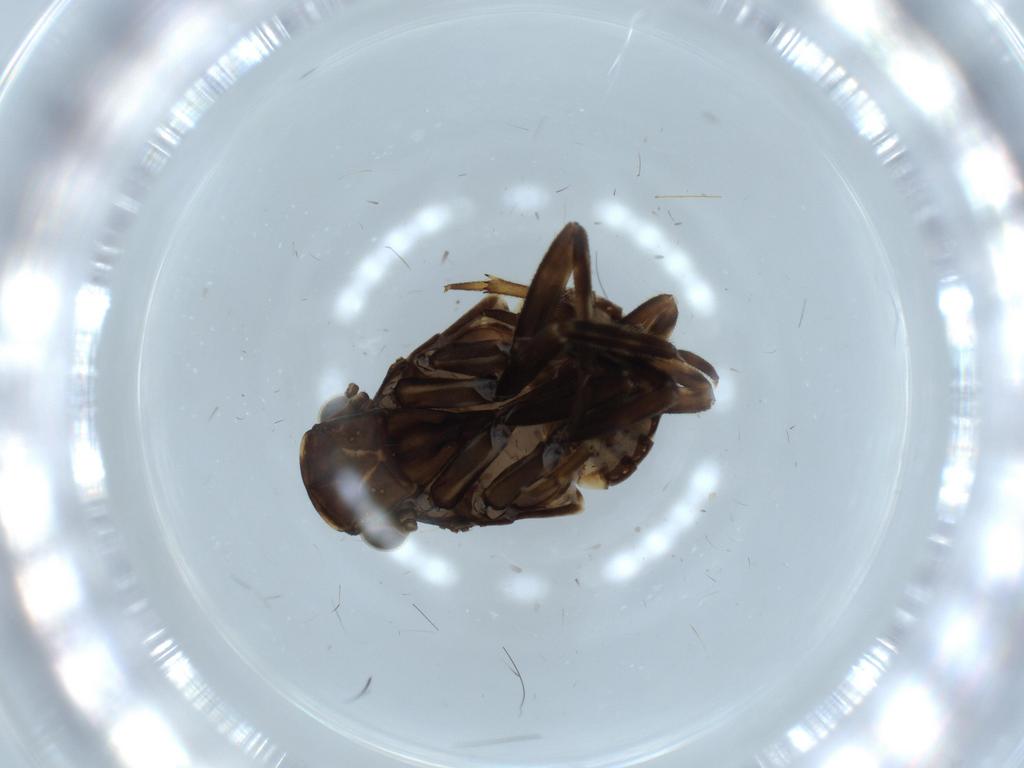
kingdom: Animalia
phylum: Arthropoda
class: Insecta
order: Hemiptera
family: Fulgoridae
